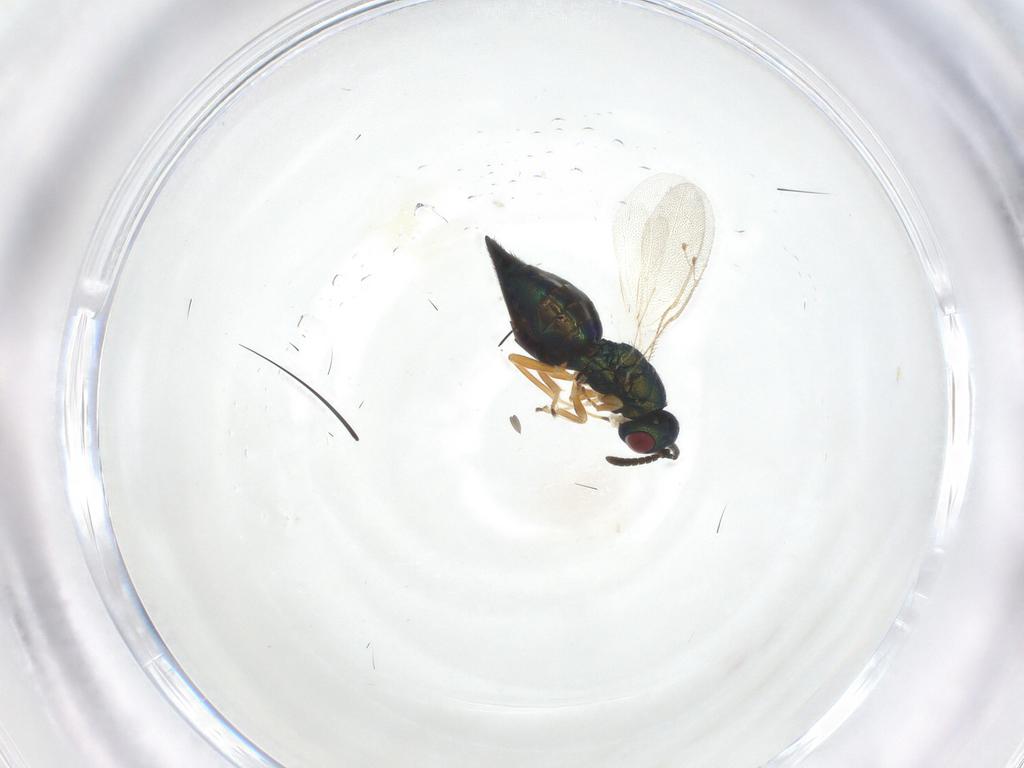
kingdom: Animalia
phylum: Arthropoda
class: Insecta
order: Hymenoptera
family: Pteromalidae
